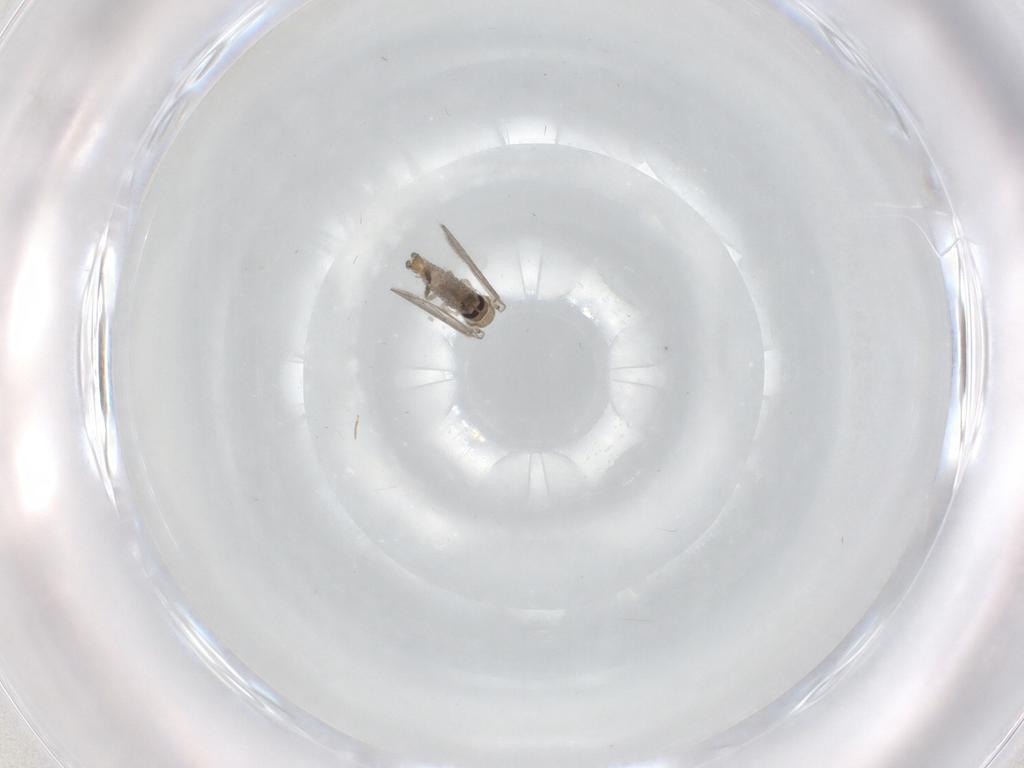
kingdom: Animalia
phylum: Arthropoda
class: Insecta
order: Diptera
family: Psychodidae
